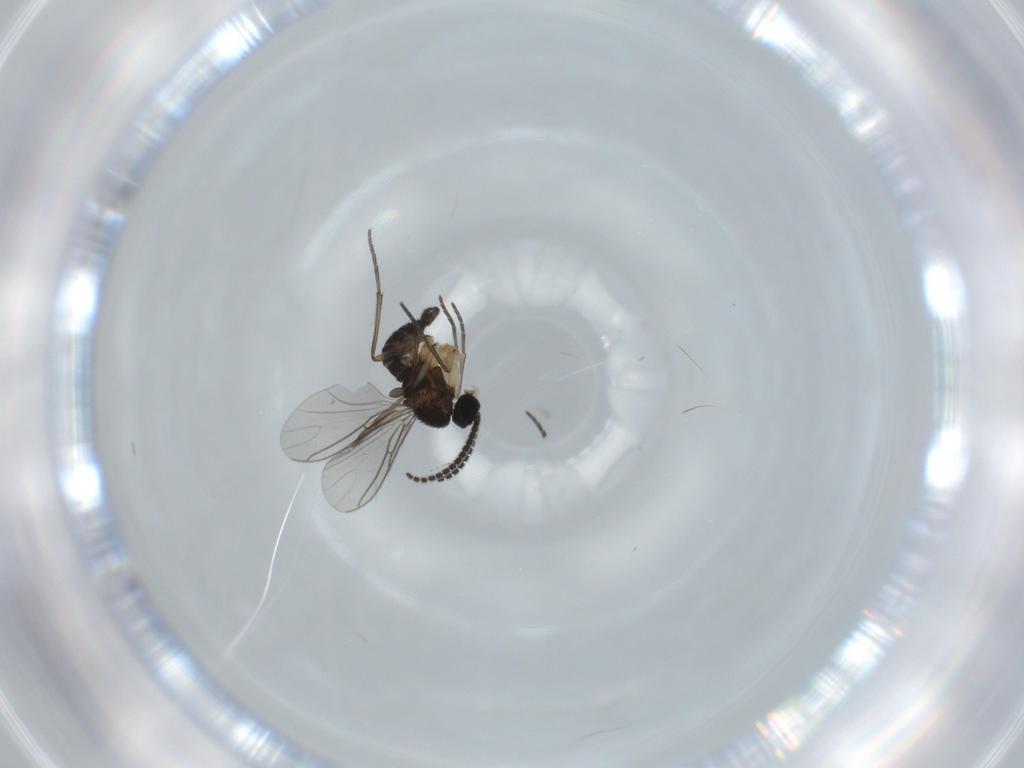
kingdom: Animalia
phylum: Arthropoda
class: Insecta
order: Diptera
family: Sciaridae
